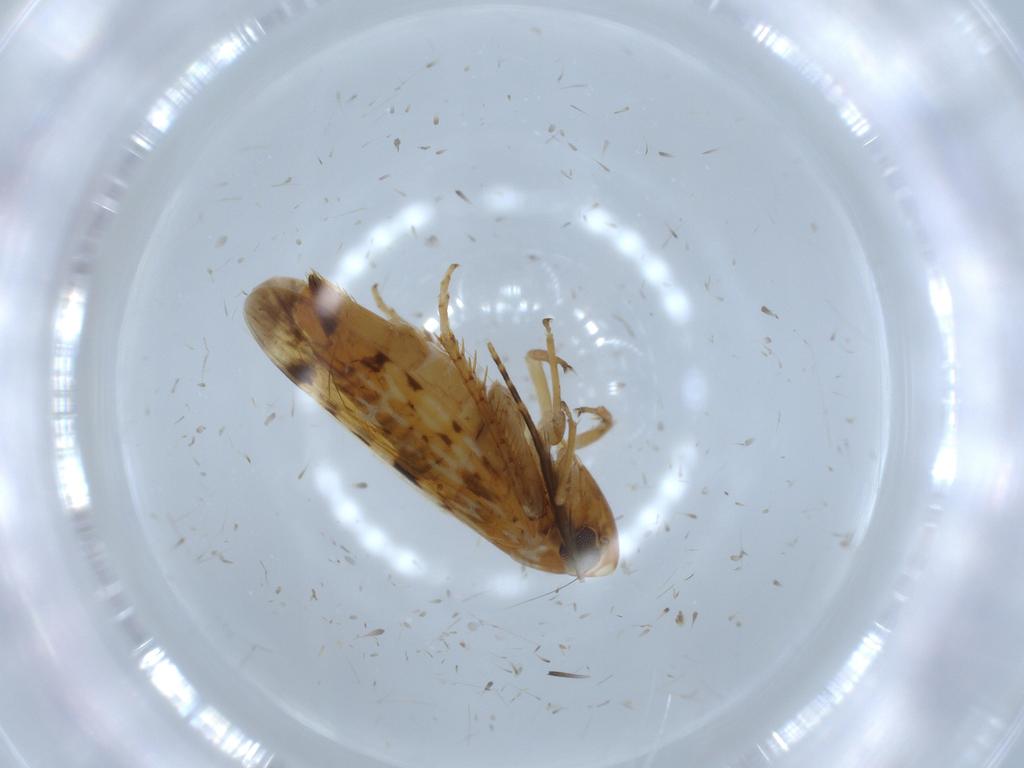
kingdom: Animalia
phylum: Arthropoda
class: Insecta
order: Hemiptera
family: Cicadellidae
